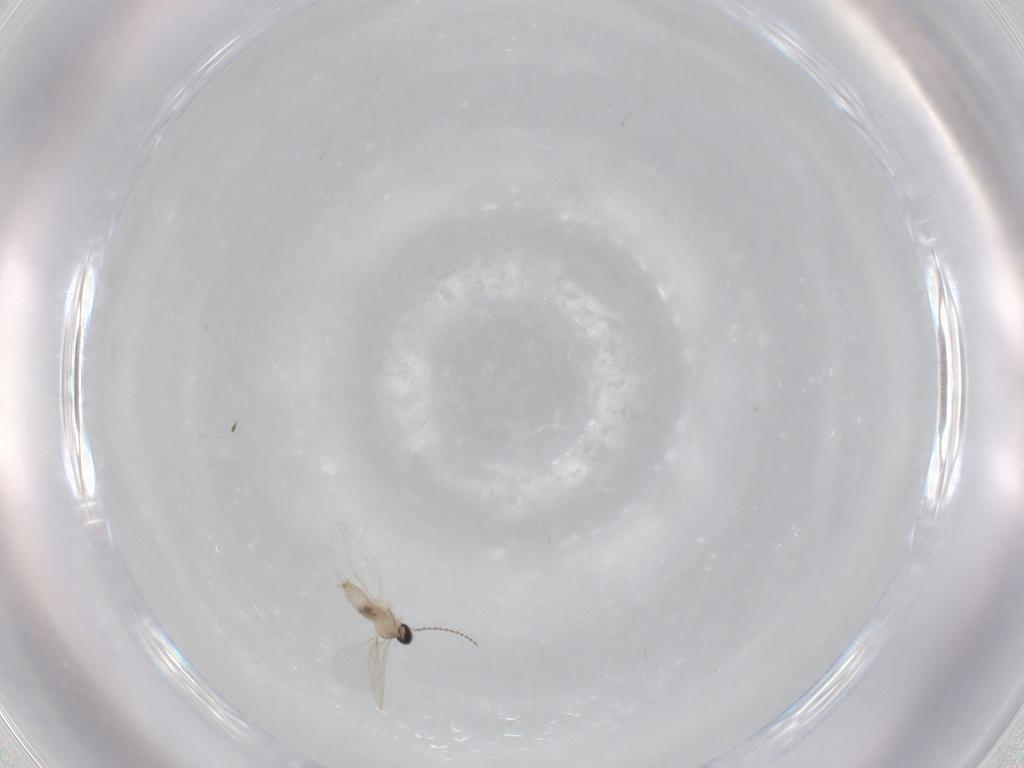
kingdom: Animalia
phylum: Arthropoda
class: Insecta
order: Diptera
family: Cecidomyiidae
